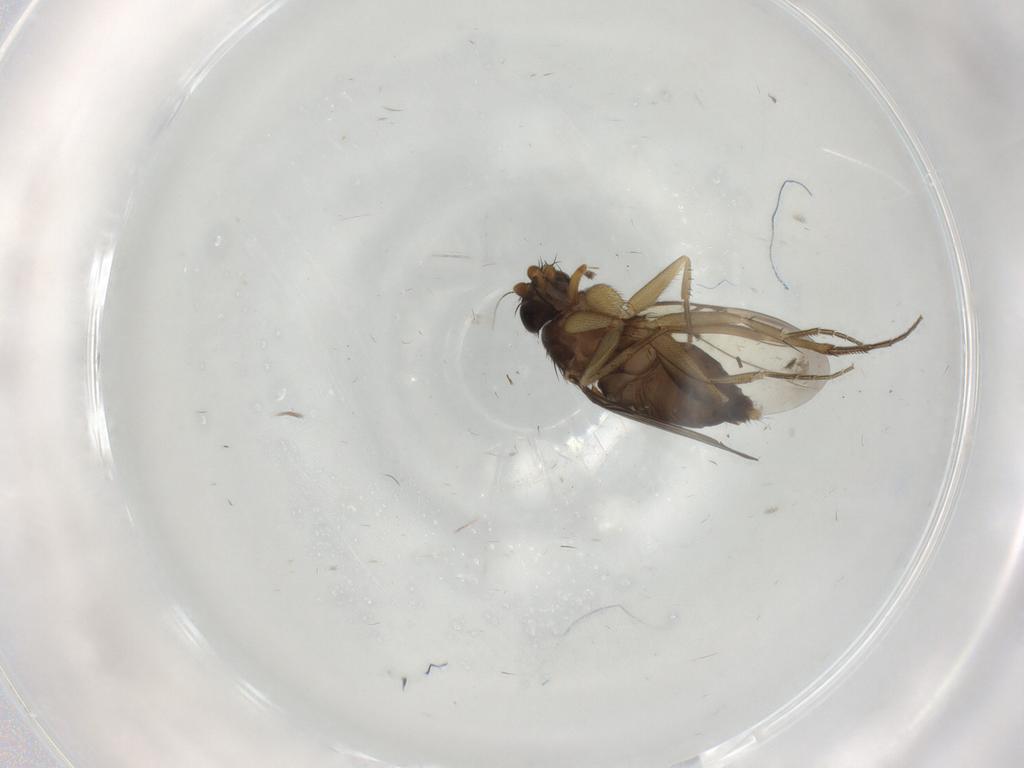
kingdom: Animalia
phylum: Arthropoda
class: Insecta
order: Diptera
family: Phoridae
